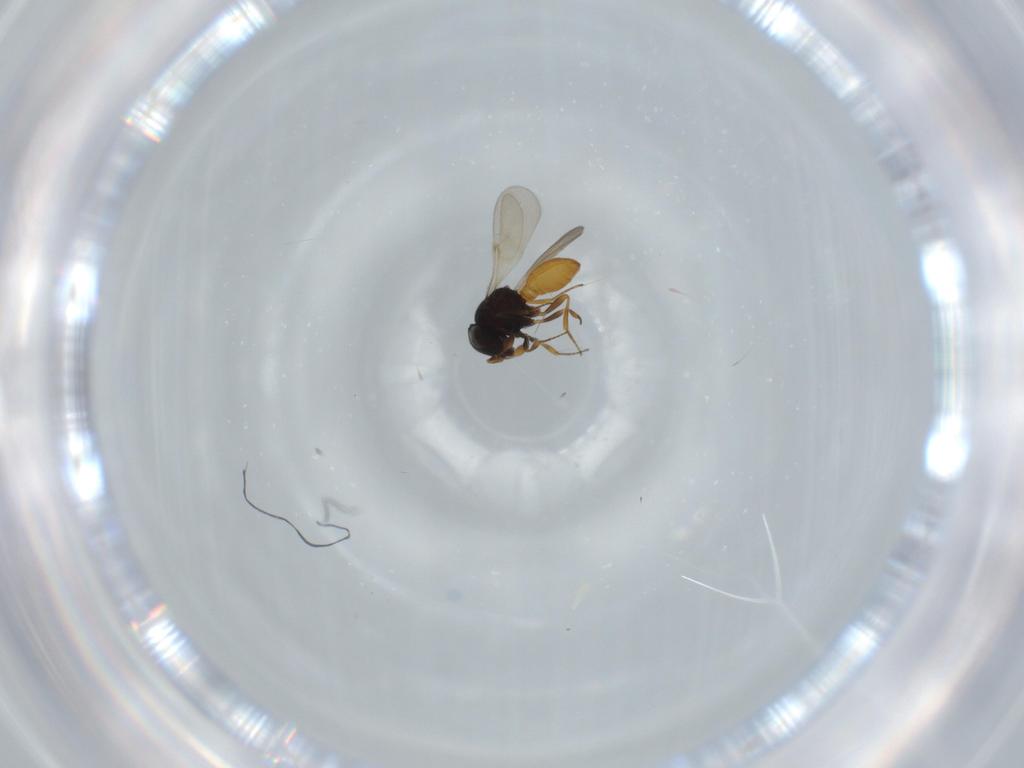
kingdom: Animalia
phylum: Arthropoda
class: Insecta
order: Hymenoptera
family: Scelionidae
